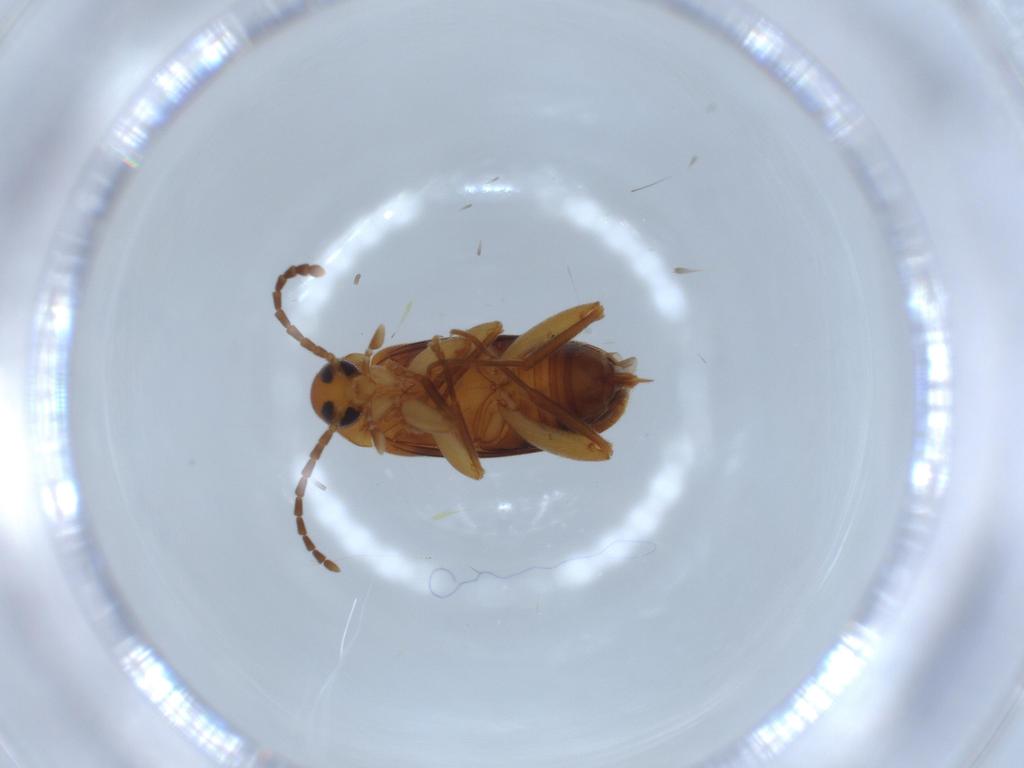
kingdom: Animalia
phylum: Arthropoda
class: Insecta
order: Coleoptera
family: Scraptiidae
